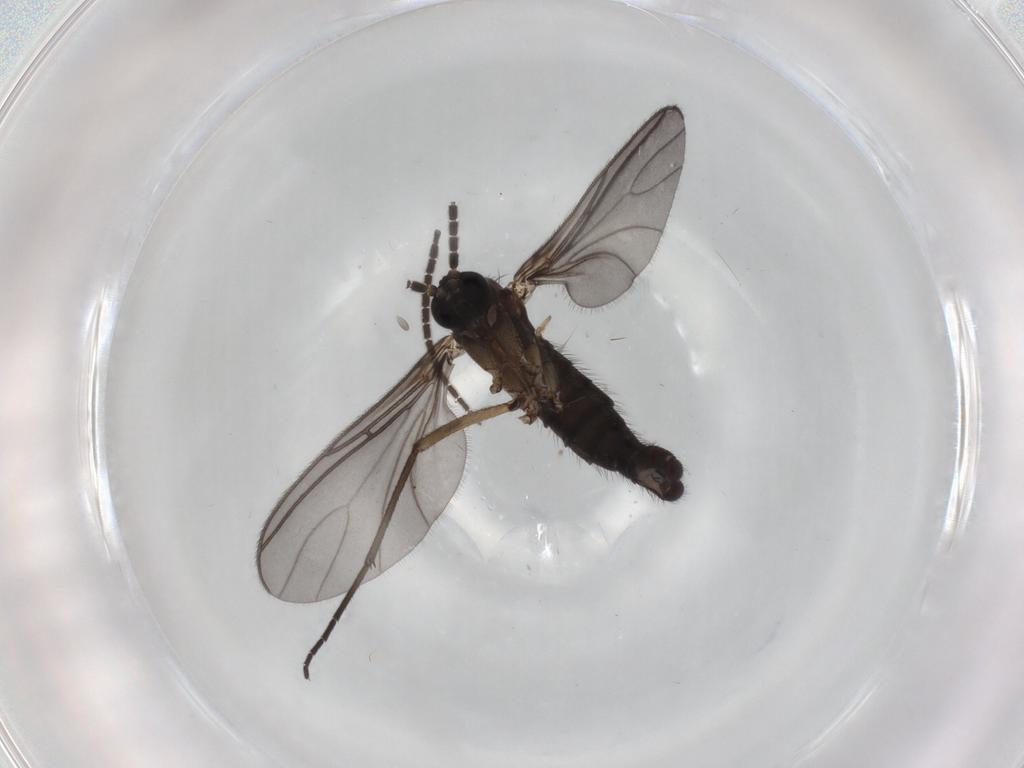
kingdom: Animalia
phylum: Arthropoda
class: Insecta
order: Diptera
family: Sciaridae
